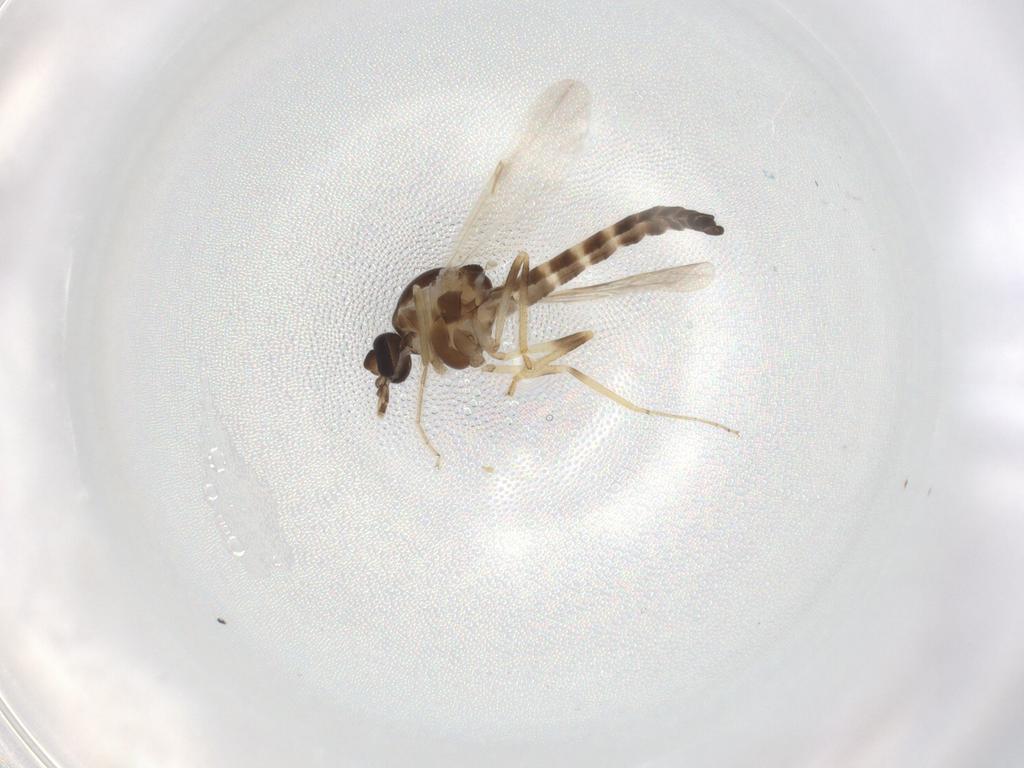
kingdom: Animalia
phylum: Arthropoda
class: Insecta
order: Diptera
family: Ceratopogonidae
